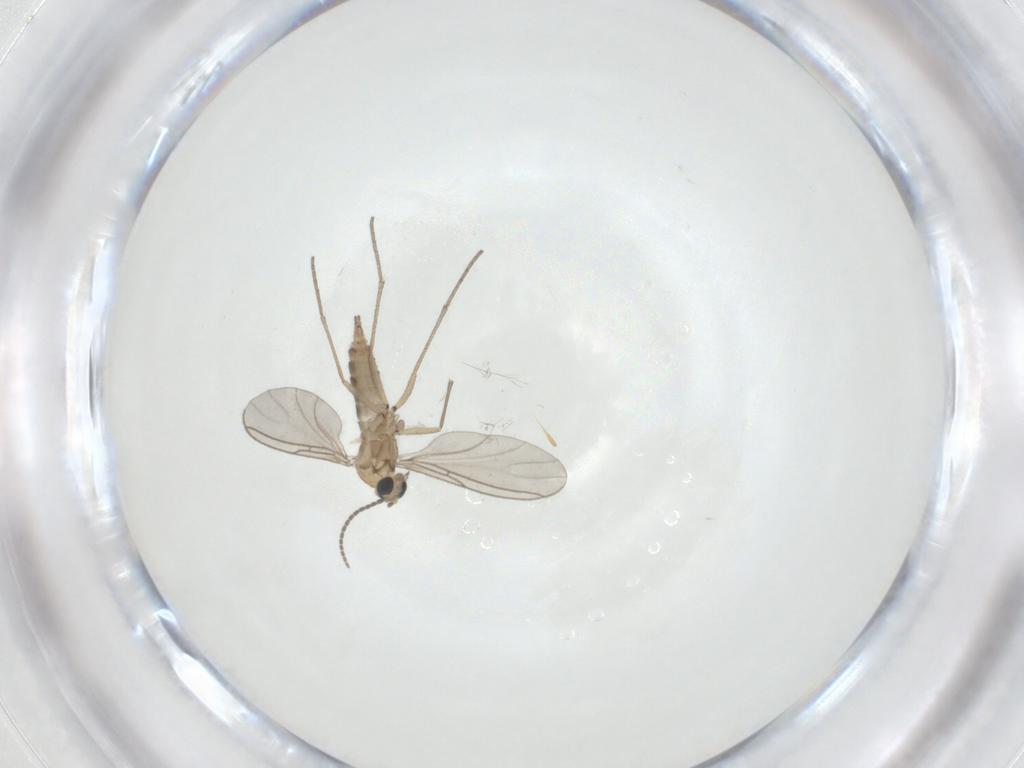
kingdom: Animalia
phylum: Arthropoda
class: Insecta
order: Diptera
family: Sciaridae
